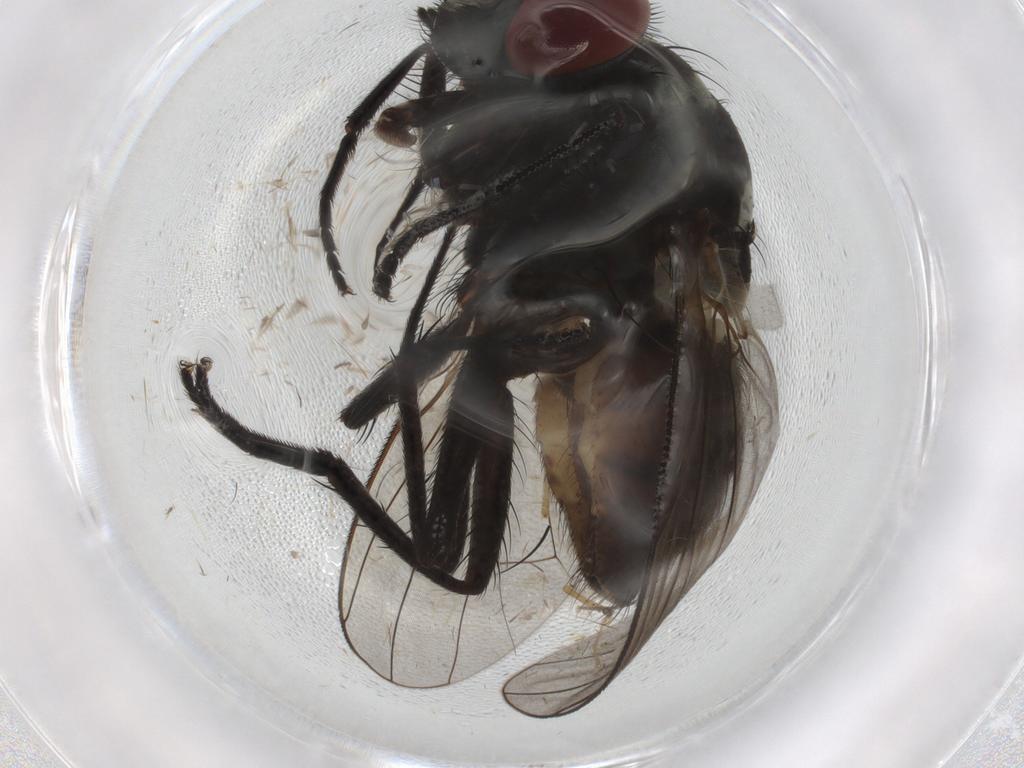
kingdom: Animalia
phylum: Arthropoda
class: Insecta
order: Diptera
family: Muscidae
